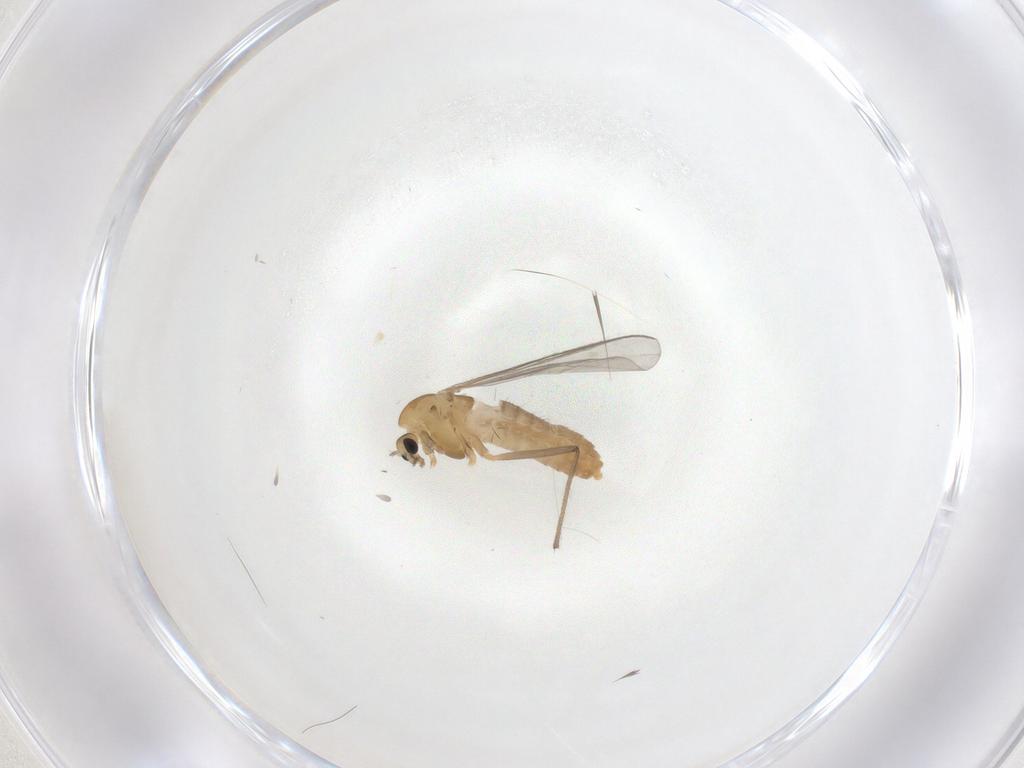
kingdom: Animalia
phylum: Arthropoda
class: Insecta
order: Diptera
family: Chironomidae
